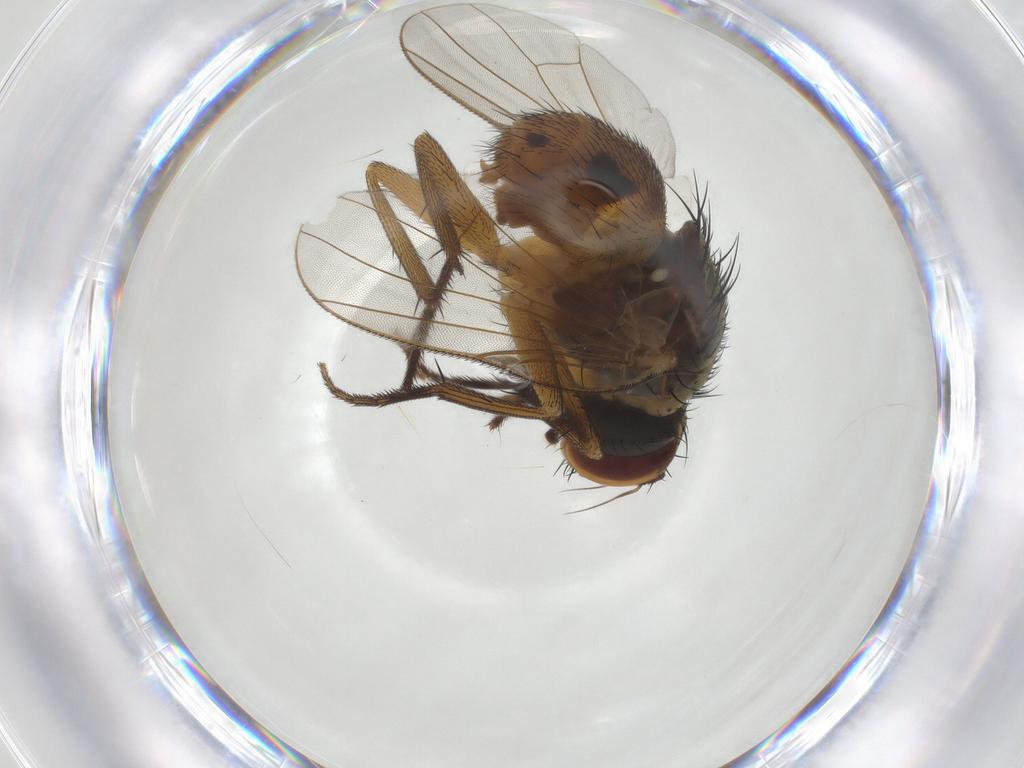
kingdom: Animalia
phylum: Arthropoda
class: Insecta
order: Diptera
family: Muscidae
